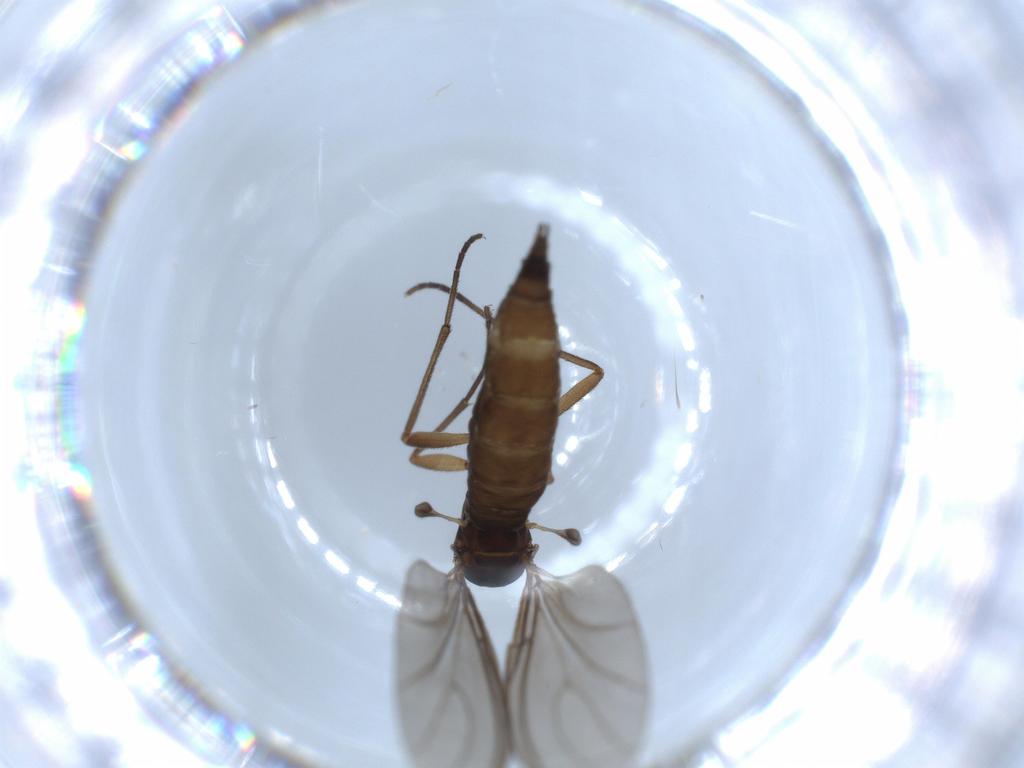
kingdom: Animalia
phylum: Arthropoda
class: Insecta
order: Diptera
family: Sciaridae
